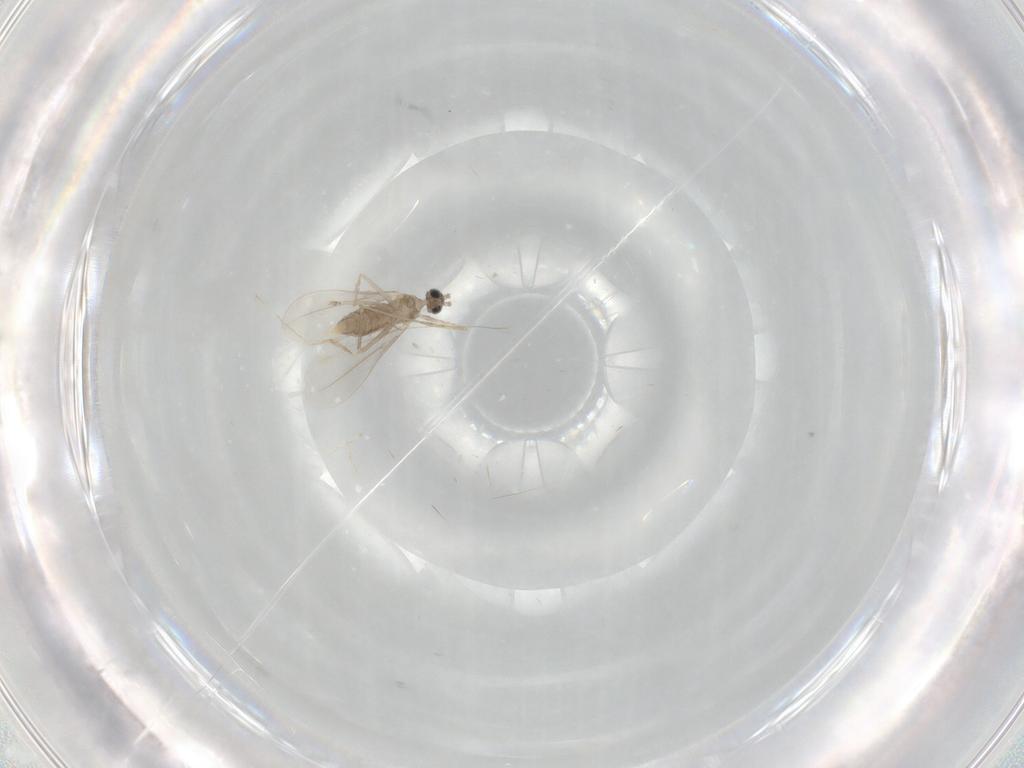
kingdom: Animalia
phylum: Arthropoda
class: Insecta
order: Diptera
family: Cecidomyiidae
